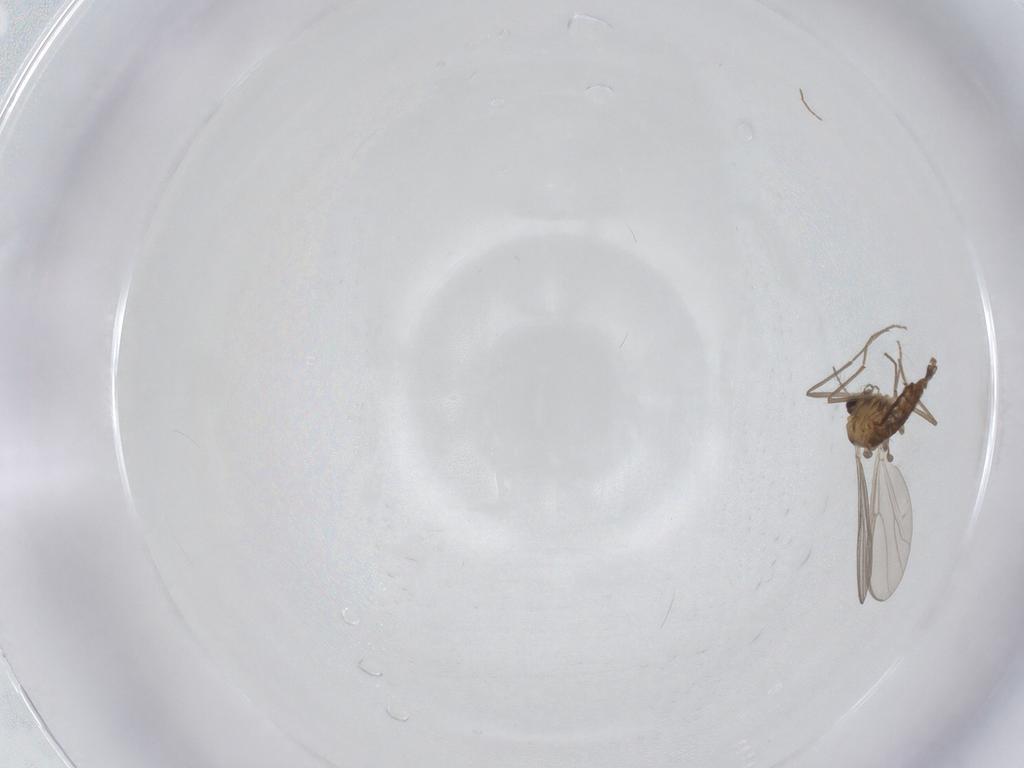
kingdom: Animalia
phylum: Arthropoda
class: Insecta
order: Diptera
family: Chironomidae
